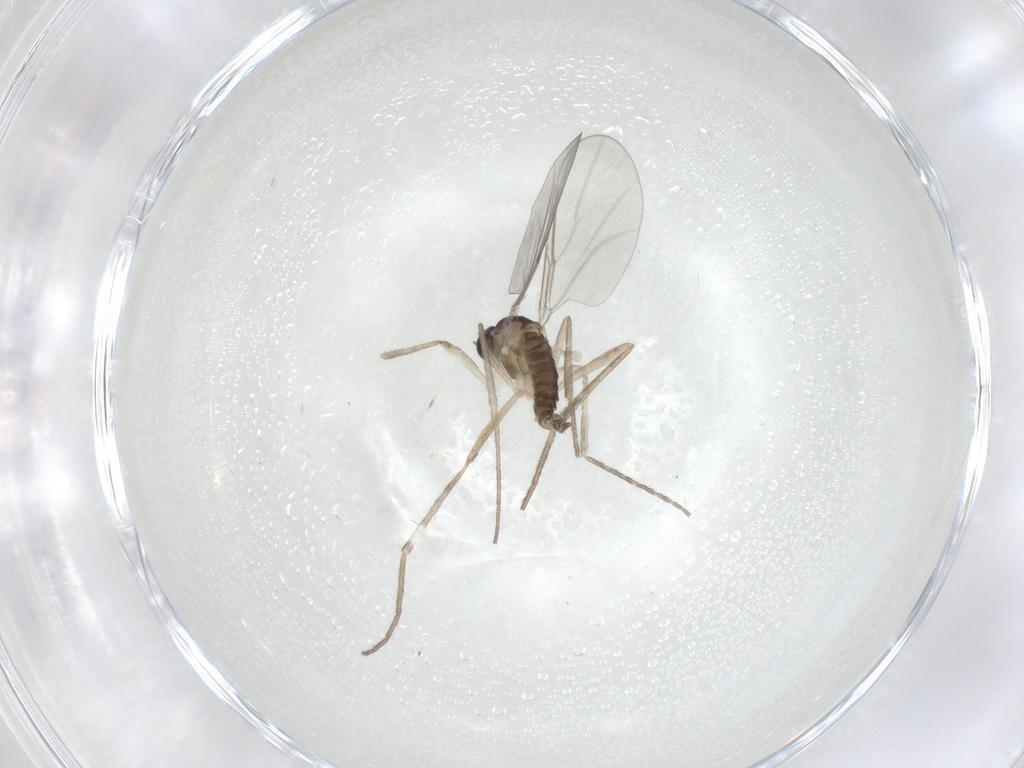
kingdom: Animalia
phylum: Arthropoda
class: Insecta
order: Diptera
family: Cecidomyiidae
